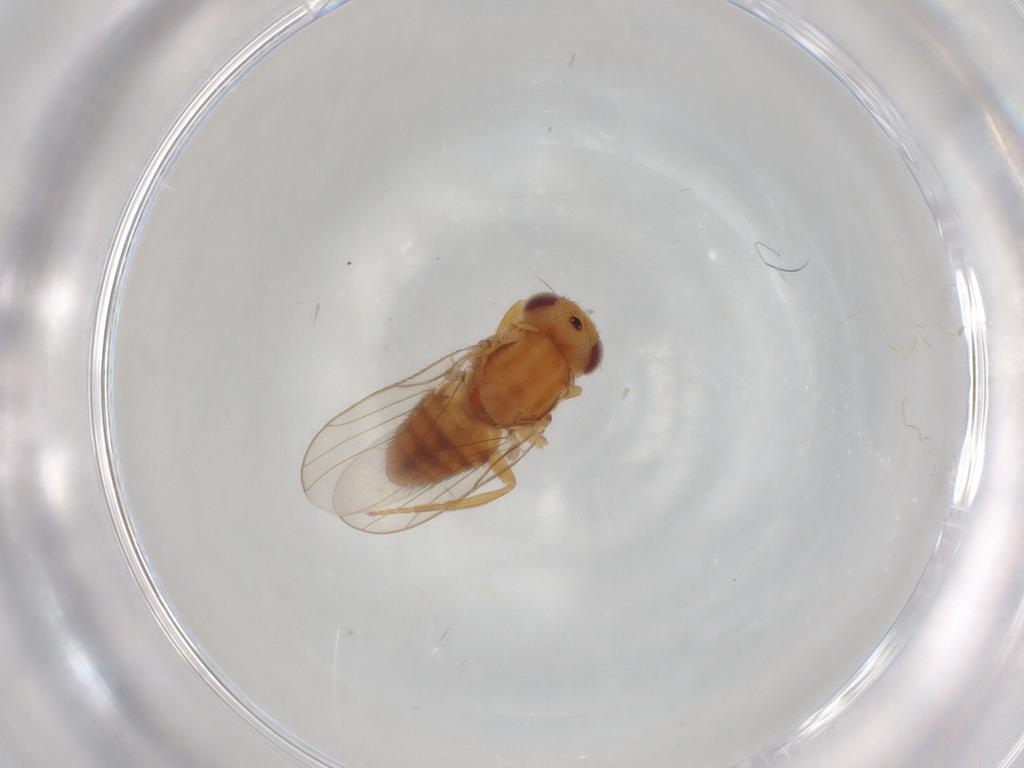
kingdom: Animalia
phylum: Arthropoda
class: Insecta
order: Diptera
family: Chloropidae
